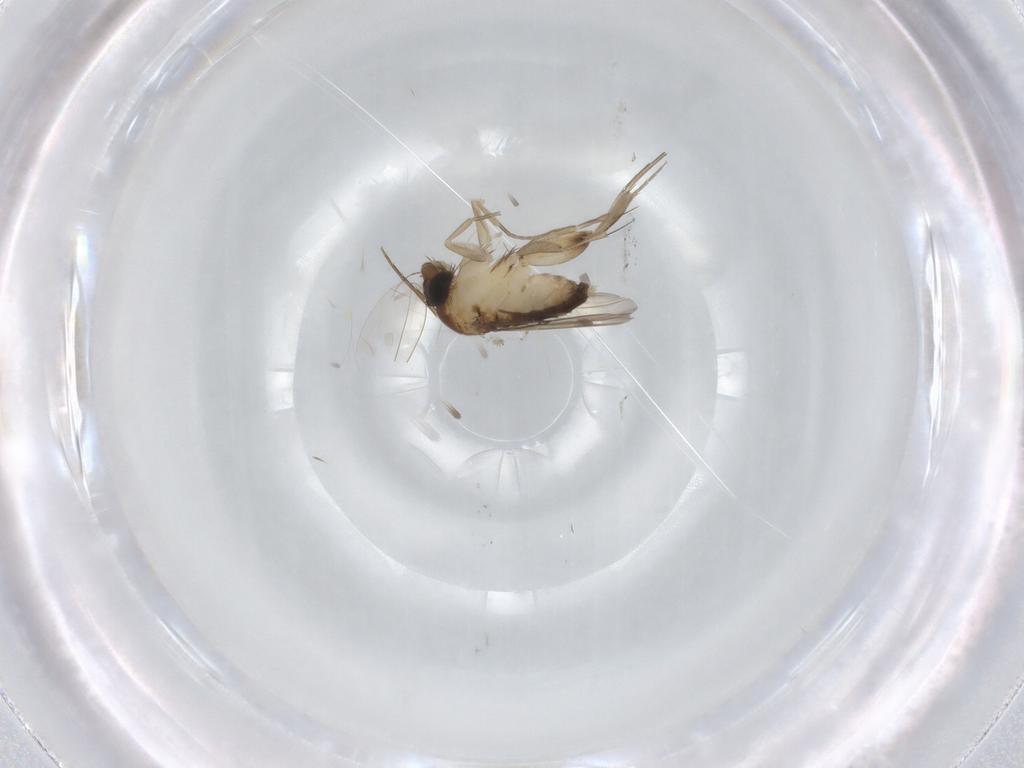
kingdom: Animalia
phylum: Arthropoda
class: Insecta
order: Diptera
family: Phoridae
